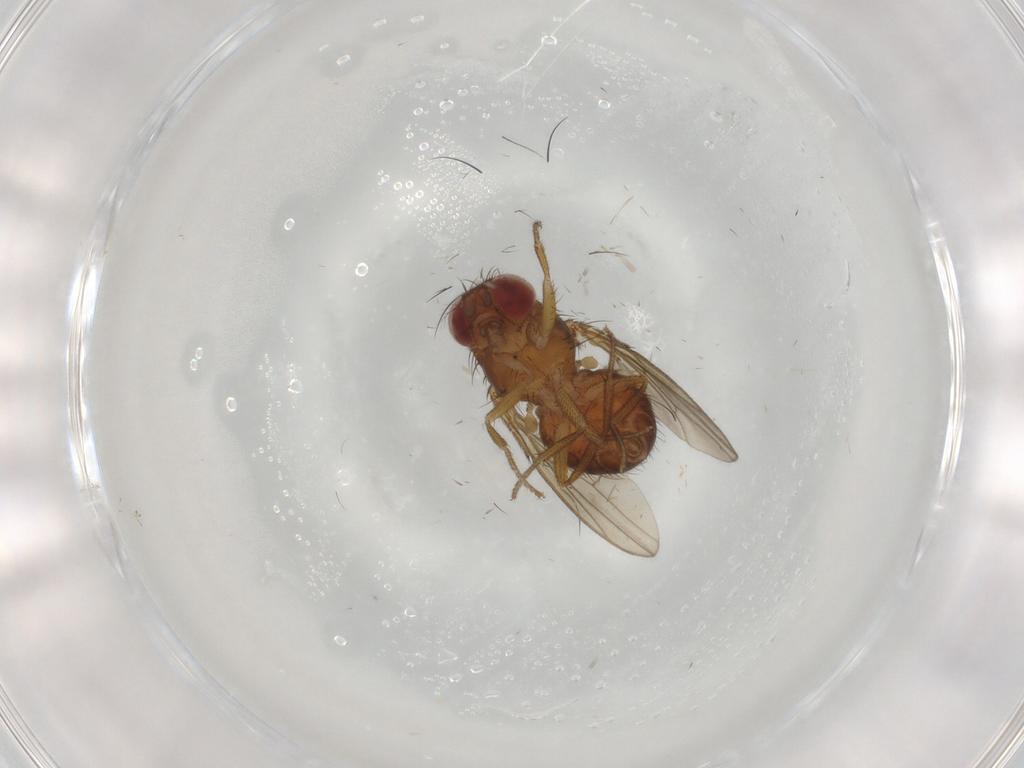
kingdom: Animalia
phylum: Arthropoda
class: Insecta
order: Diptera
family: Drosophilidae
